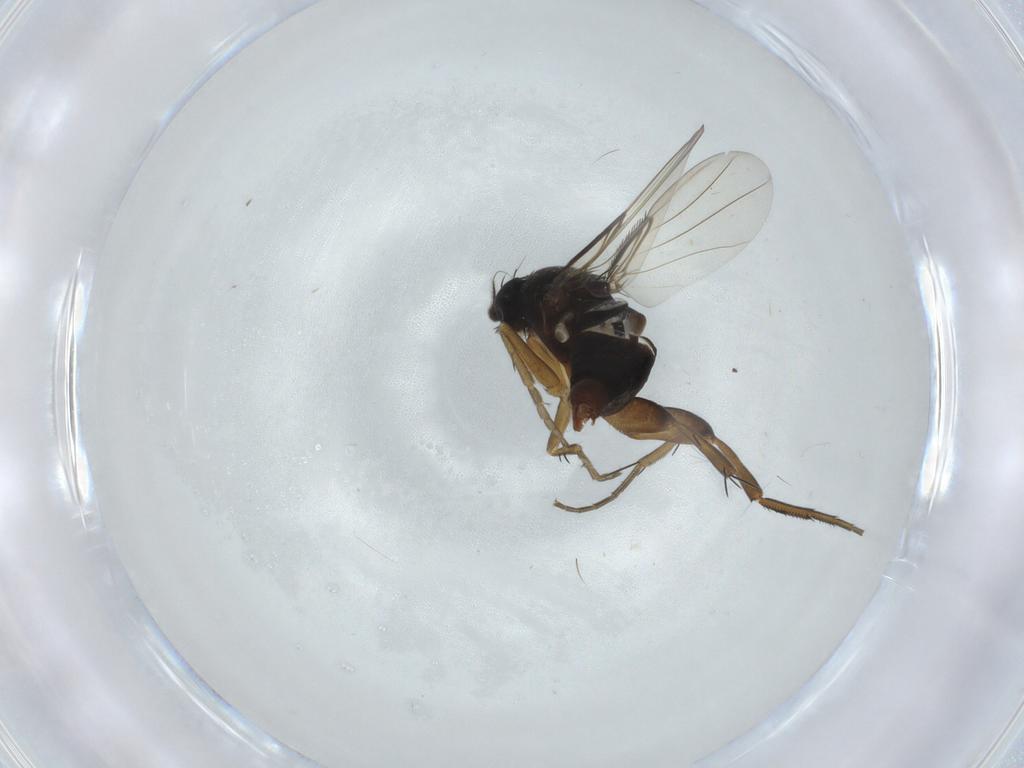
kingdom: Animalia
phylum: Arthropoda
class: Insecta
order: Diptera
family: Phoridae
